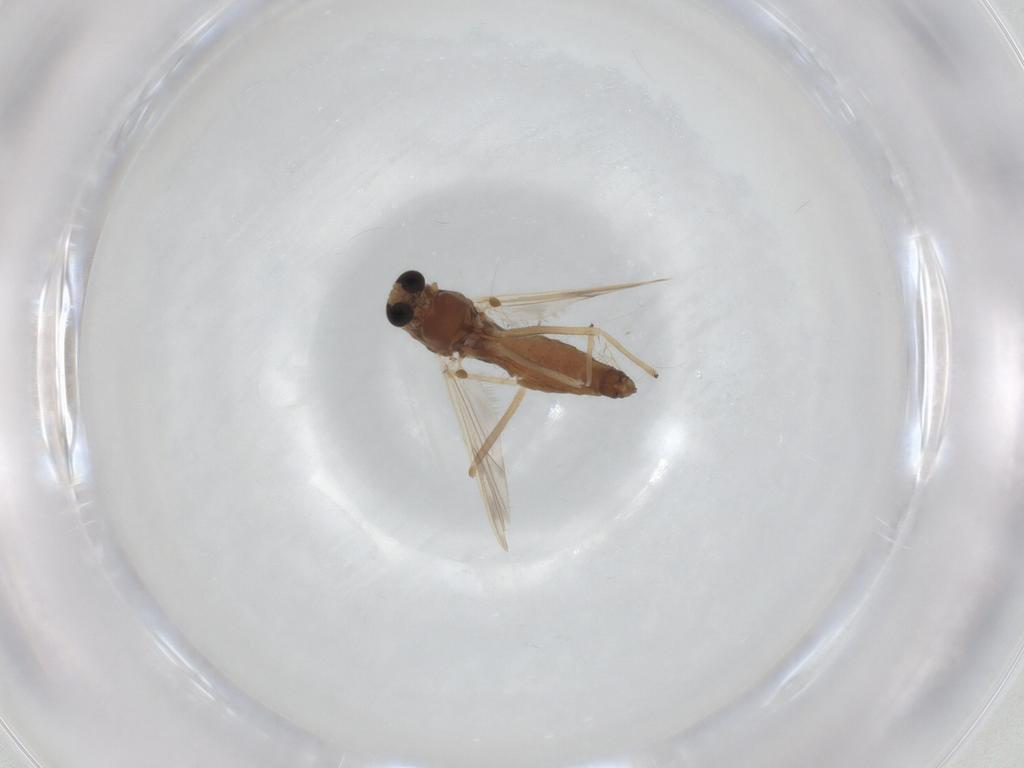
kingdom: Animalia
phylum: Arthropoda
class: Insecta
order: Diptera
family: Chironomidae
